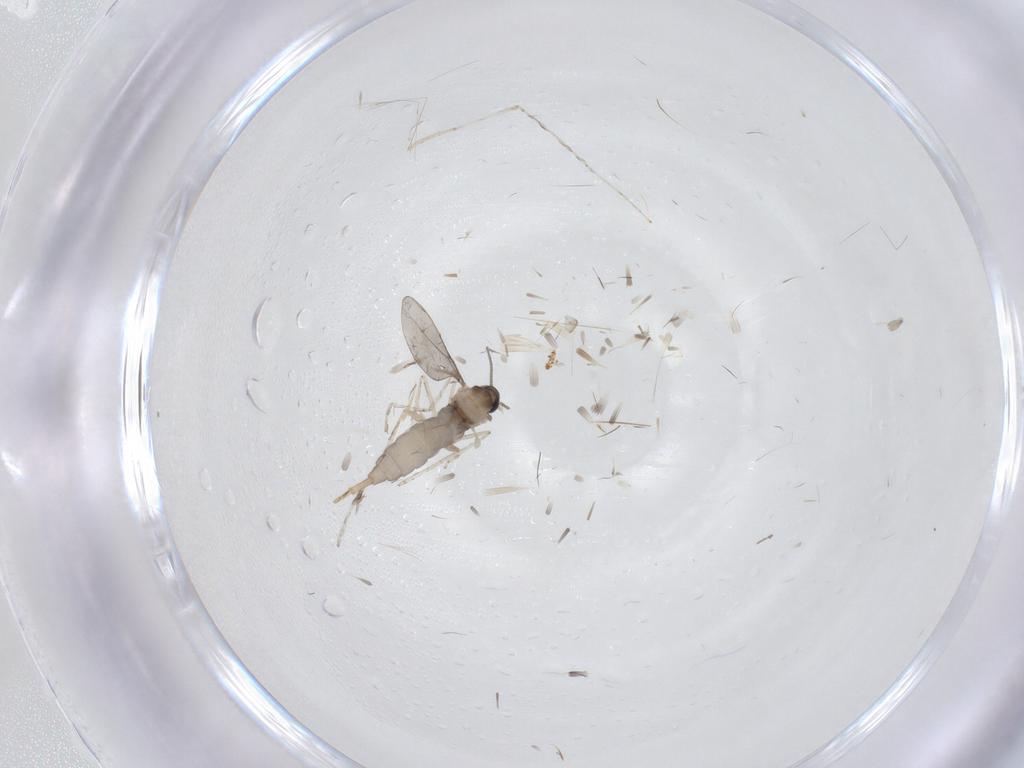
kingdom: Animalia
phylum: Arthropoda
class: Insecta
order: Diptera
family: Cecidomyiidae
